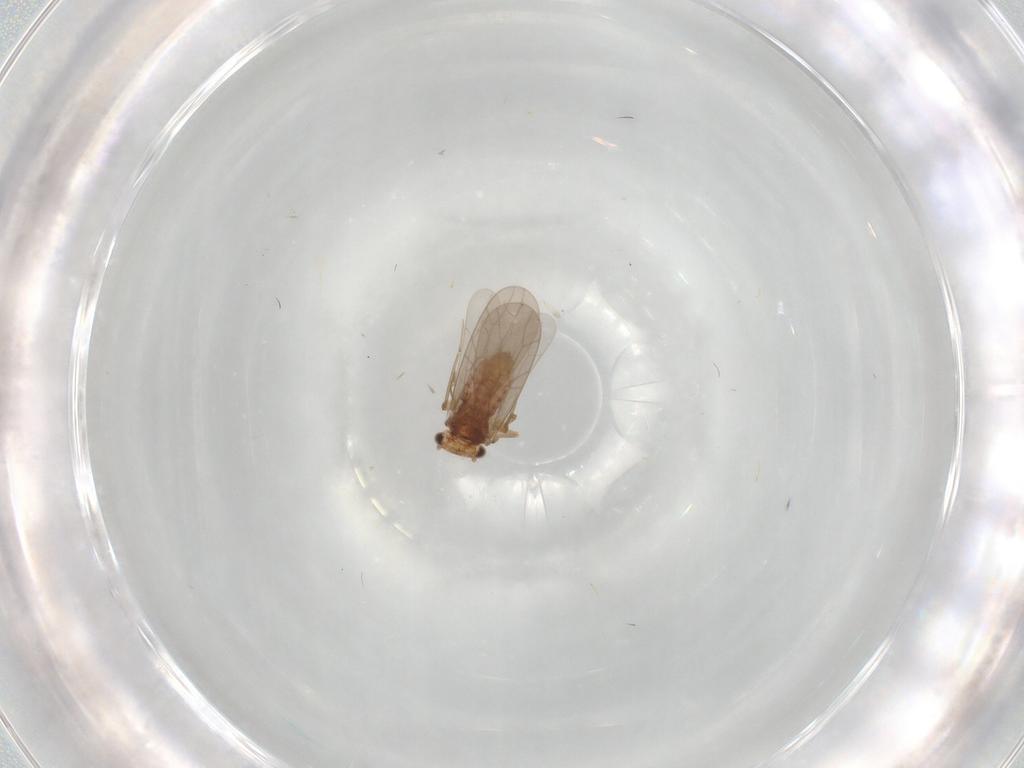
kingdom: Animalia
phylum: Arthropoda
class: Insecta
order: Psocodea
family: Lepidopsocidae
